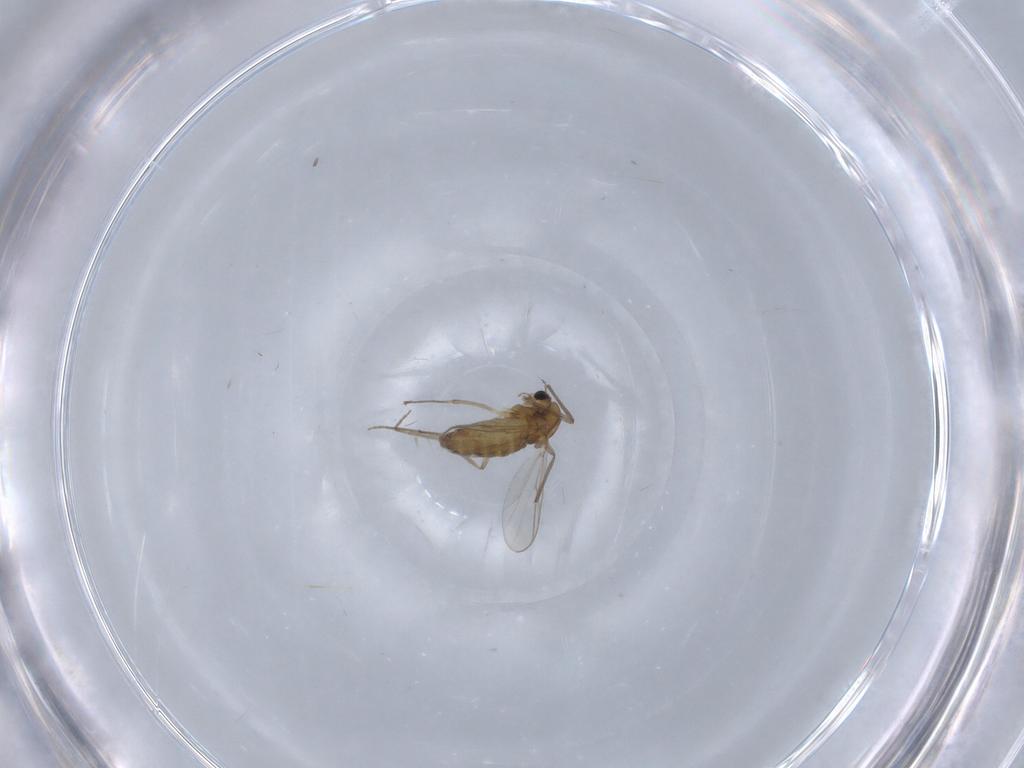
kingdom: Animalia
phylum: Arthropoda
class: Insecta
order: Diptera
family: Chironomidae
